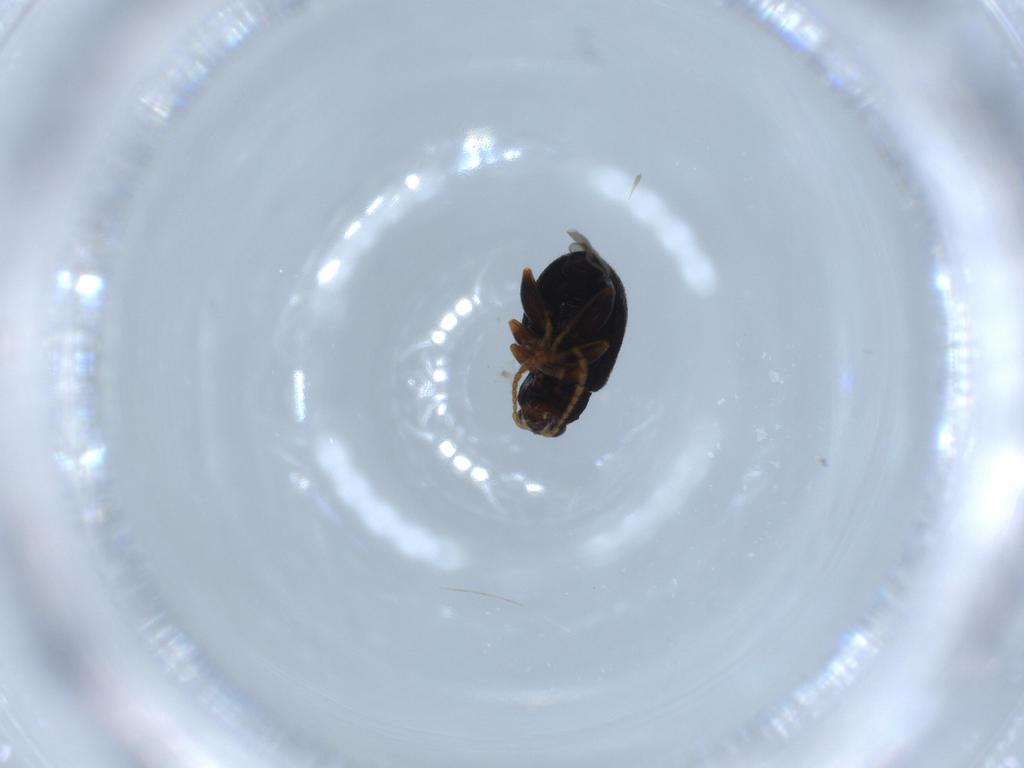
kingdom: Animalia
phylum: Arthropoda
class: Insecta
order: Coleoptera
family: Chrysomelidae
